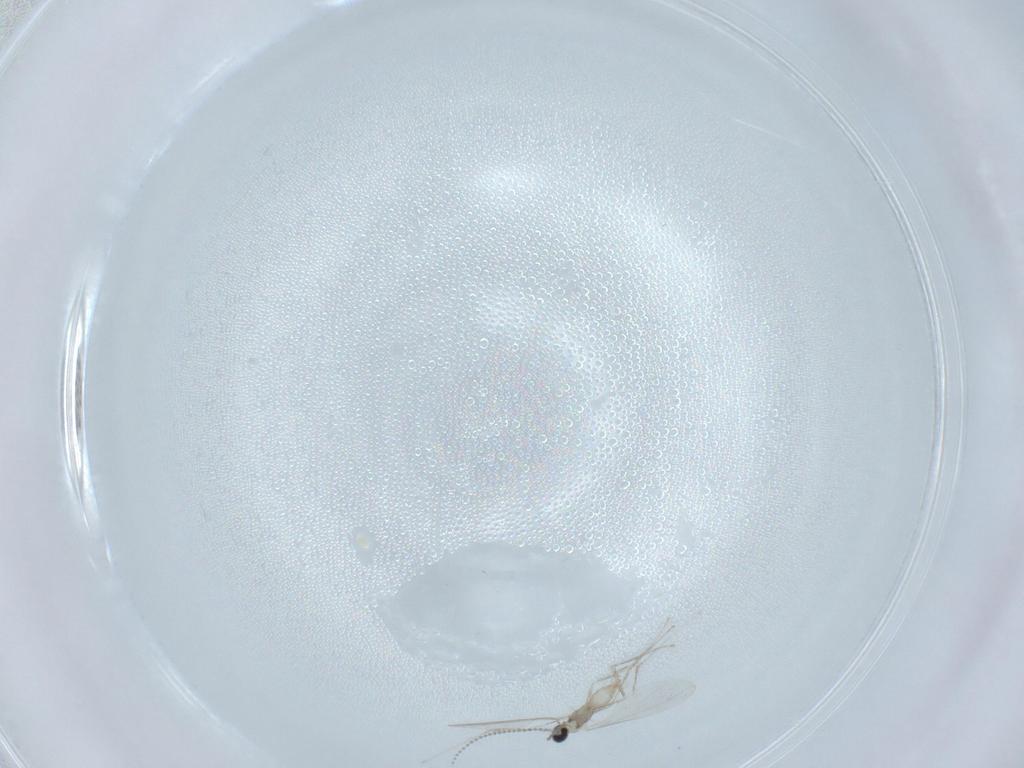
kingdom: Animalia
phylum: Arthropoda
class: Insecta
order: Diptera
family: Cecidomyiidae
